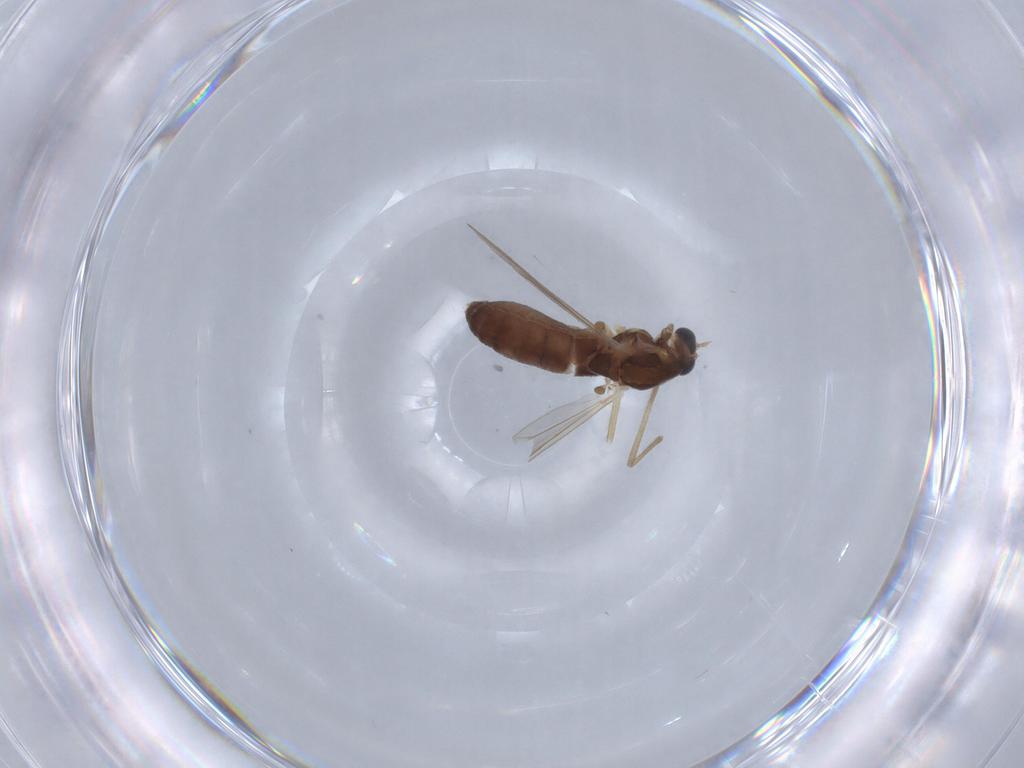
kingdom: Animalia
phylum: Arthropoda
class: Insecta
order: Diptera
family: Chironomidae
